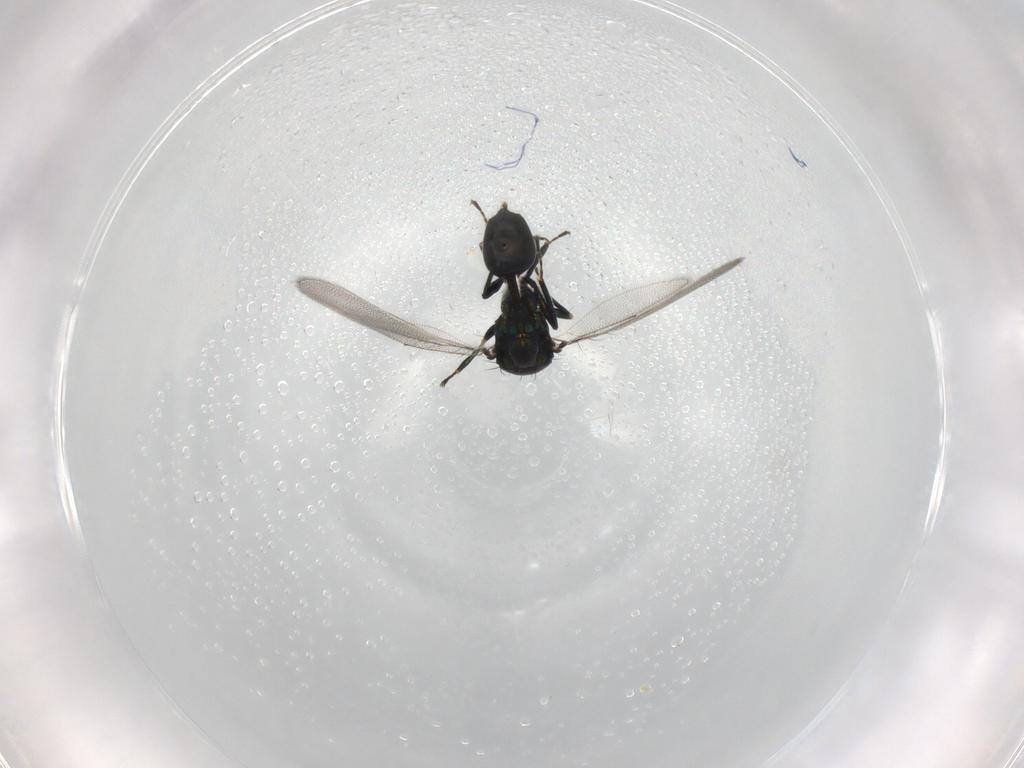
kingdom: Animalia
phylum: Arthropoda
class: Insecta
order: Hymenoptera
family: Eulophidae
